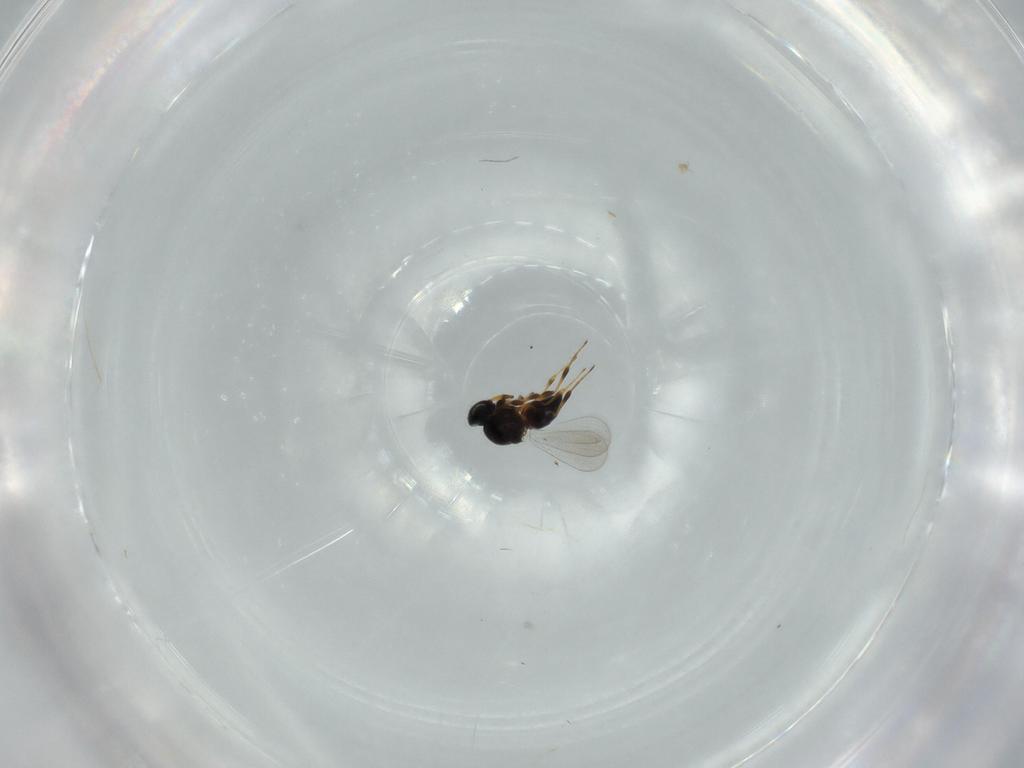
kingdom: Animalia
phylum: Arthropoda
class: Insecta
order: Hymenoptera
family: Platygastridae
